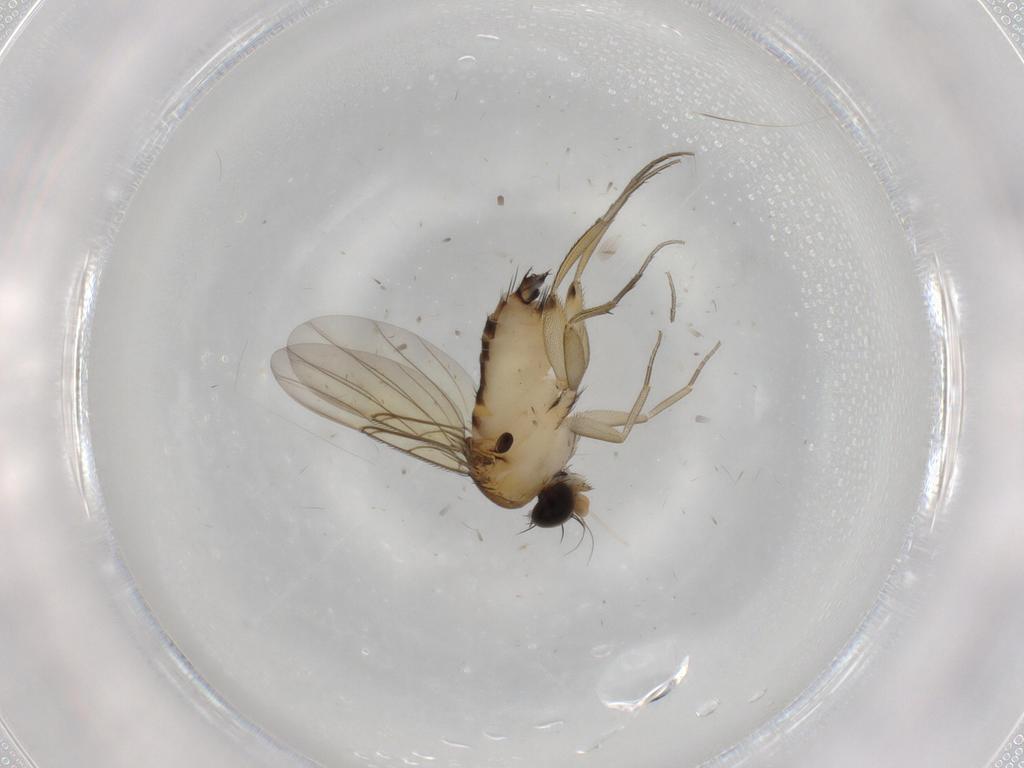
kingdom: Animalia
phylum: Arthropoda
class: Insecta
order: Diptera
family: Phoridae
